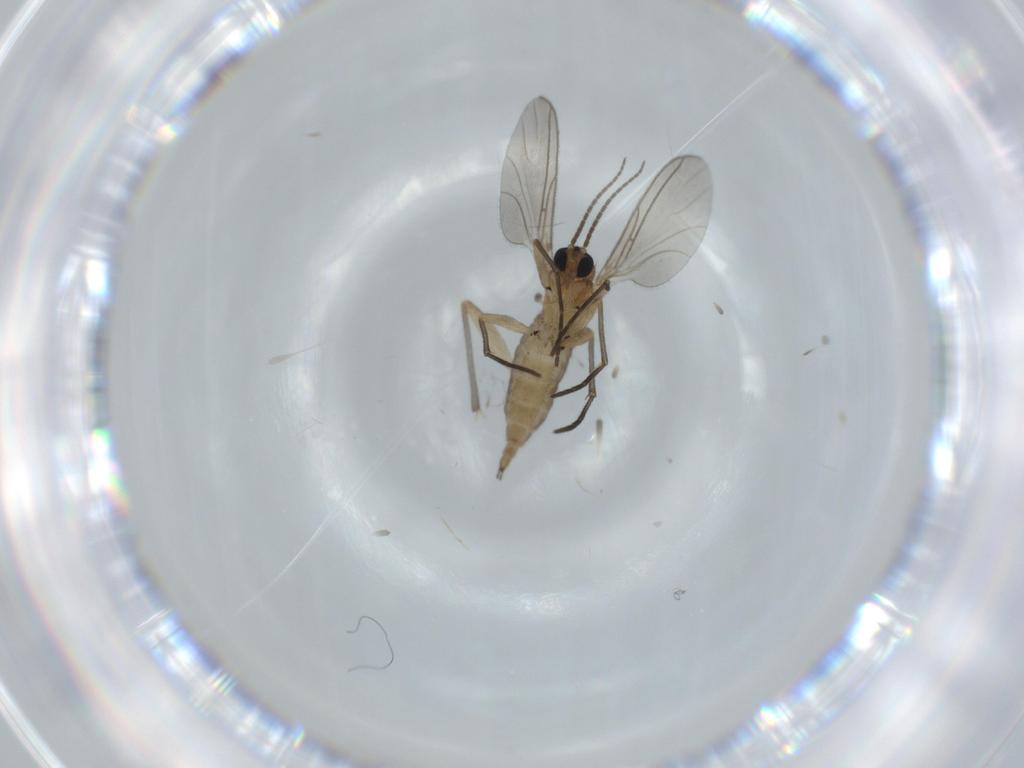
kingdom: Animalia
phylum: Arthropoda
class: Insecta
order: Diptera
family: Sciaridae
